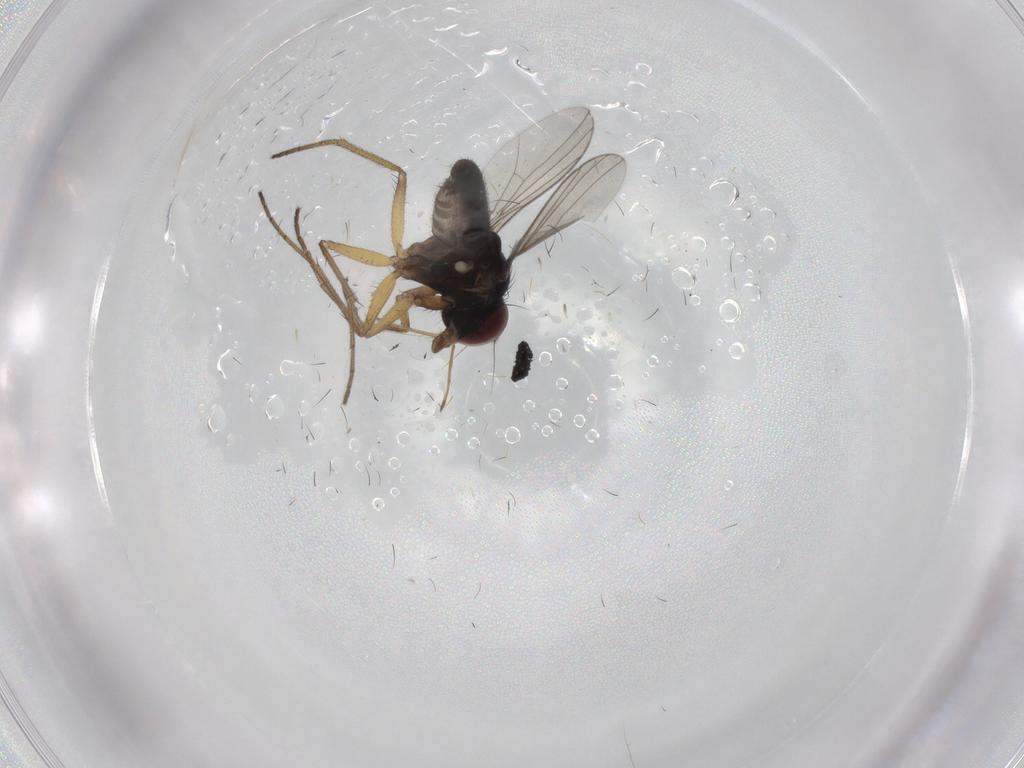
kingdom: Animalia
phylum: Arthropoda
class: Insecta
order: Diptera
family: Dolichopodidae
